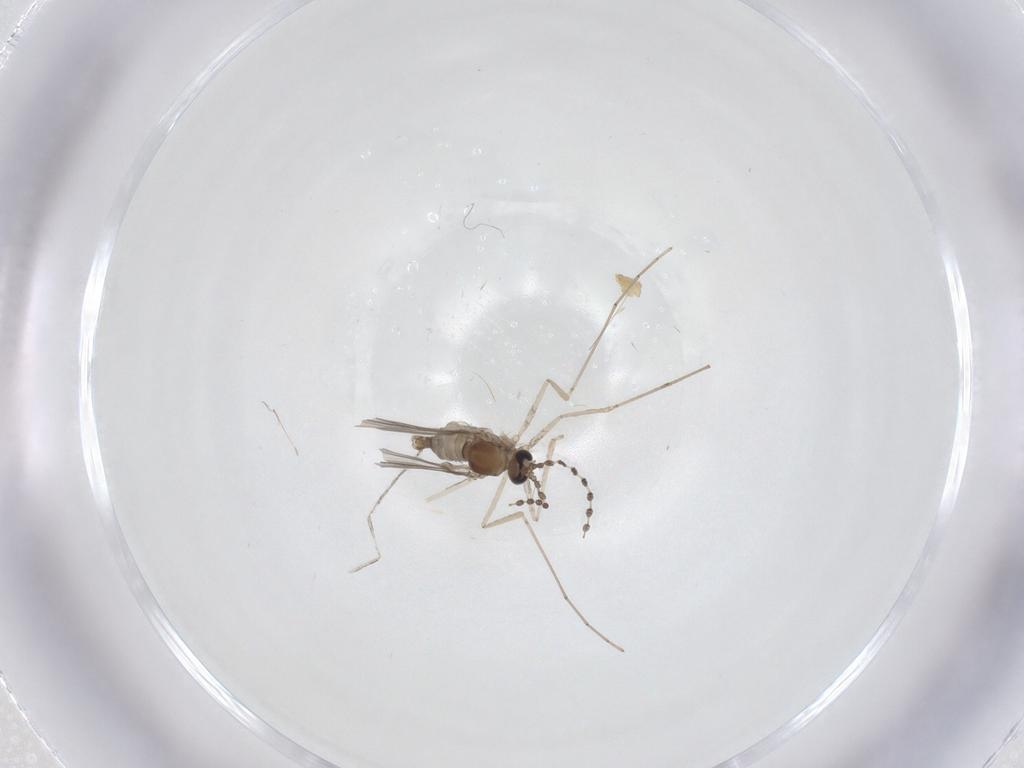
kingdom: Animalia
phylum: Arthropoda
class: Insecta
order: Diptera
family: Cecidomyiidae
